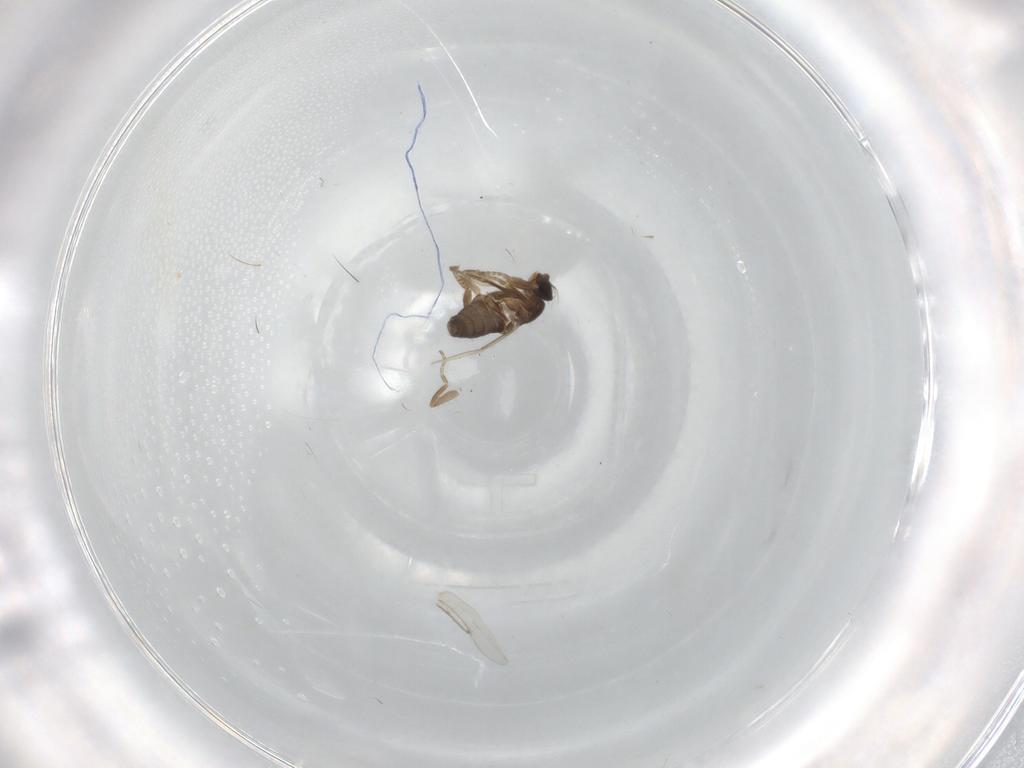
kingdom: Animalia
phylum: Arthropoda
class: Insecta
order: Diptera
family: Phoridae
